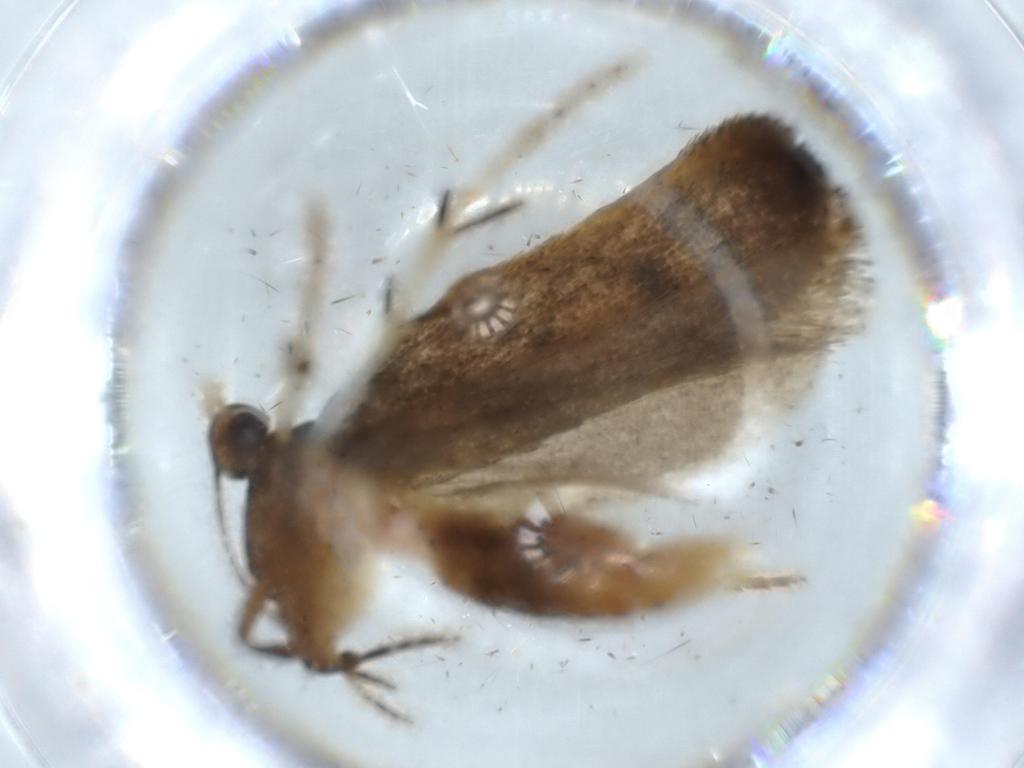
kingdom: Animalia
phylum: Arthropoda
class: Insecta
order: Lepidoptera
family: Lecithoceridae
